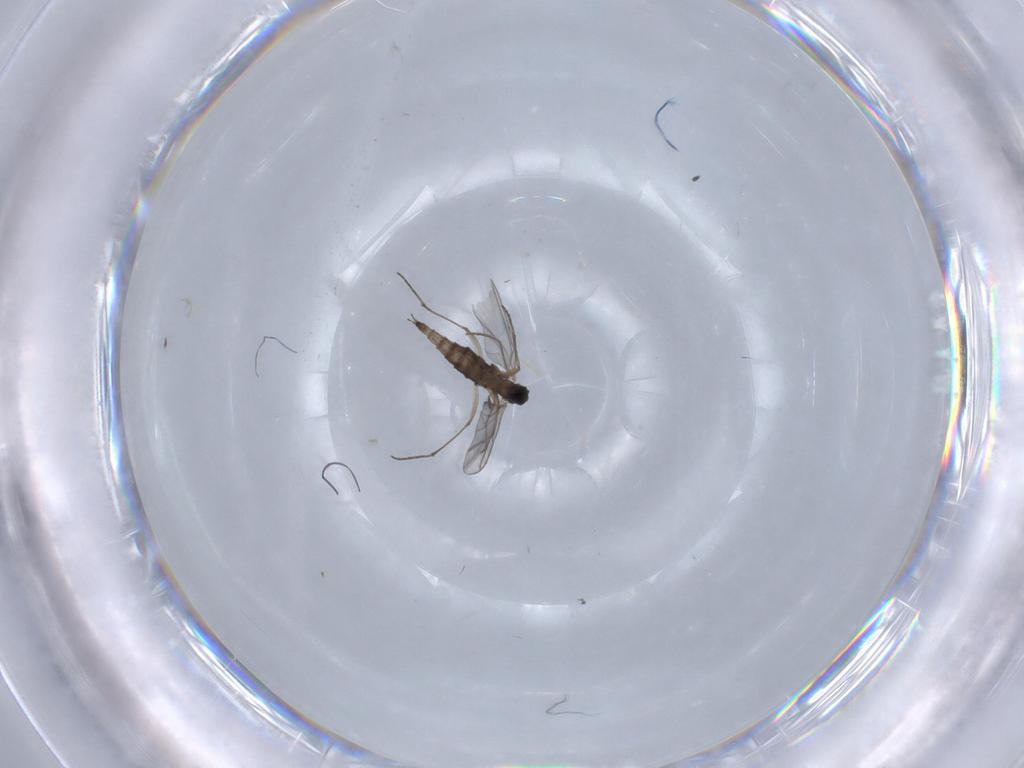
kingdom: Animalia
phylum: Arthropoda
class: Insecta
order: Diptera
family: Sciaridae
